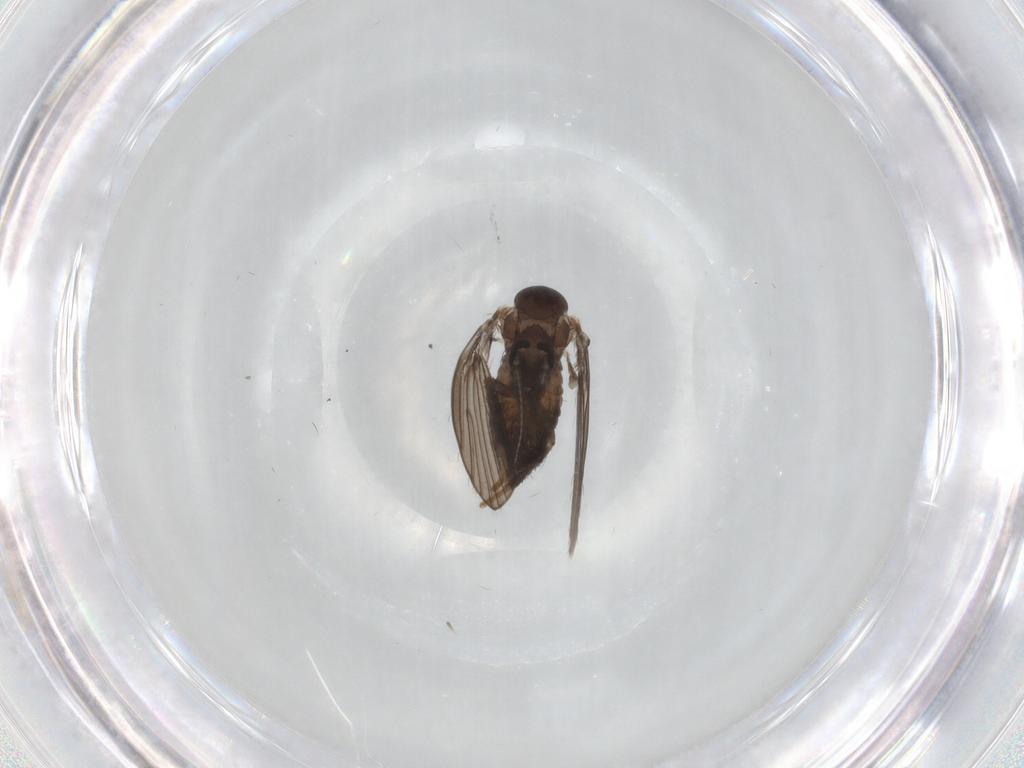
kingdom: Animalia
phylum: Arthropoda
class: Insecta
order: Diptera
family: Psychodidae
